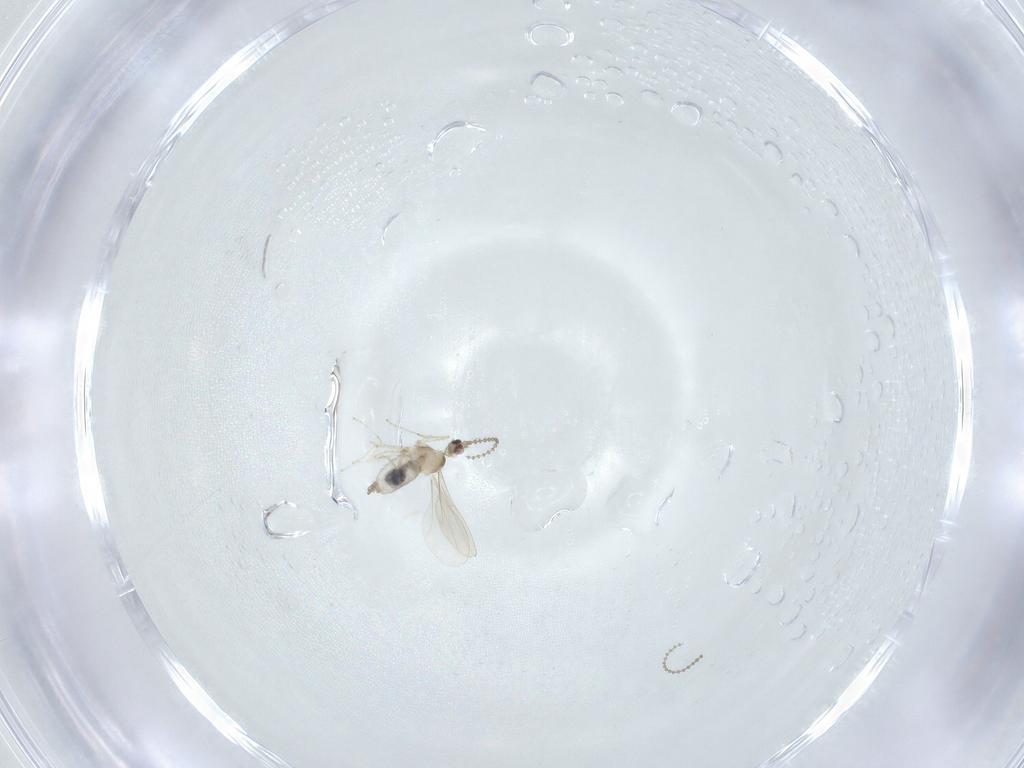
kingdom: Animalia
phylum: Arthropoda
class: Insecta
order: Diptera
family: Cecidomyiidae
